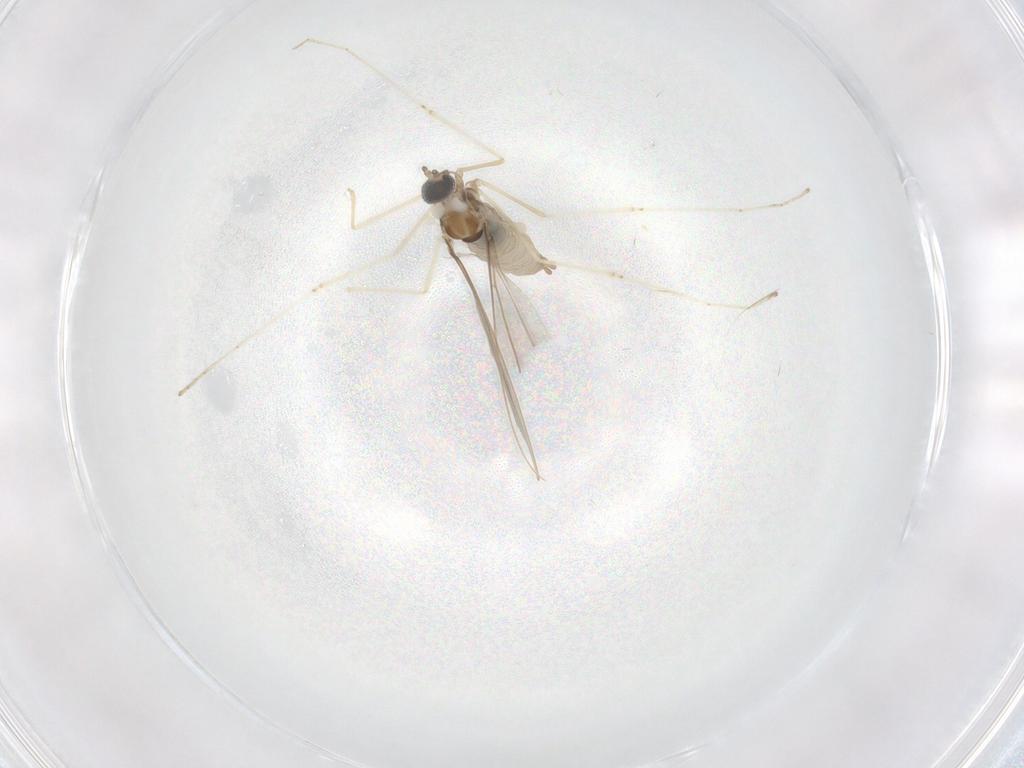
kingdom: Animalia
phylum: Arthropoda
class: Insecta
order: Diptera
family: Cecidomyiidae
